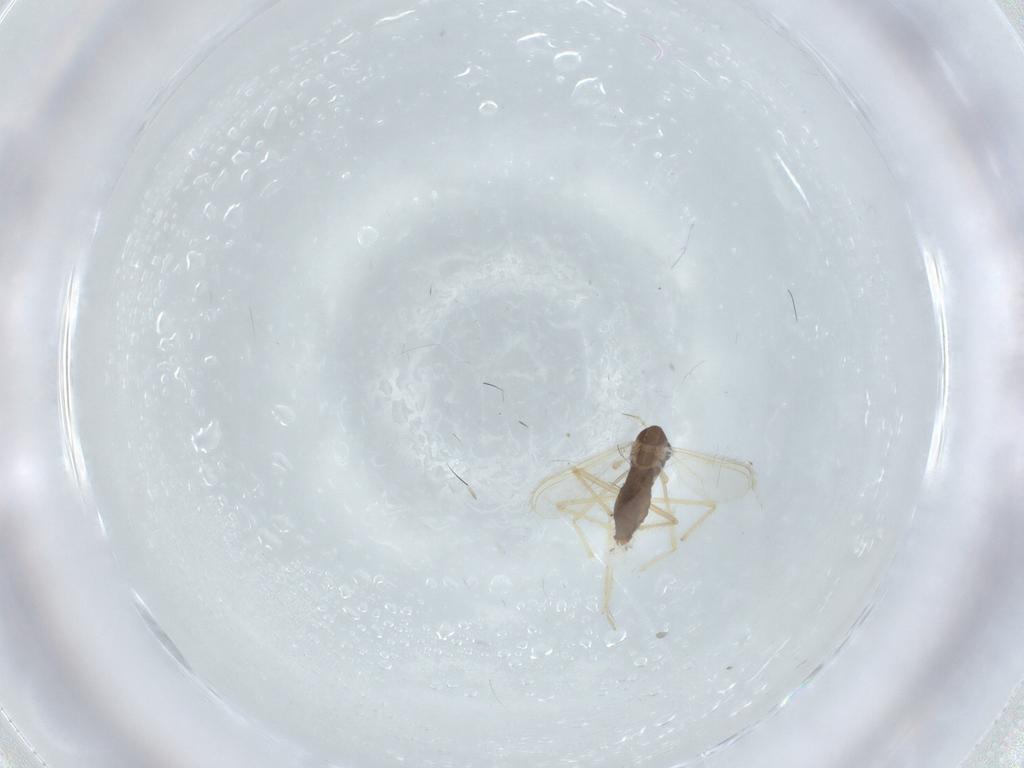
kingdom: Animalia
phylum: Arthropoda
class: Insecta
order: Diptera
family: Chironomidae
